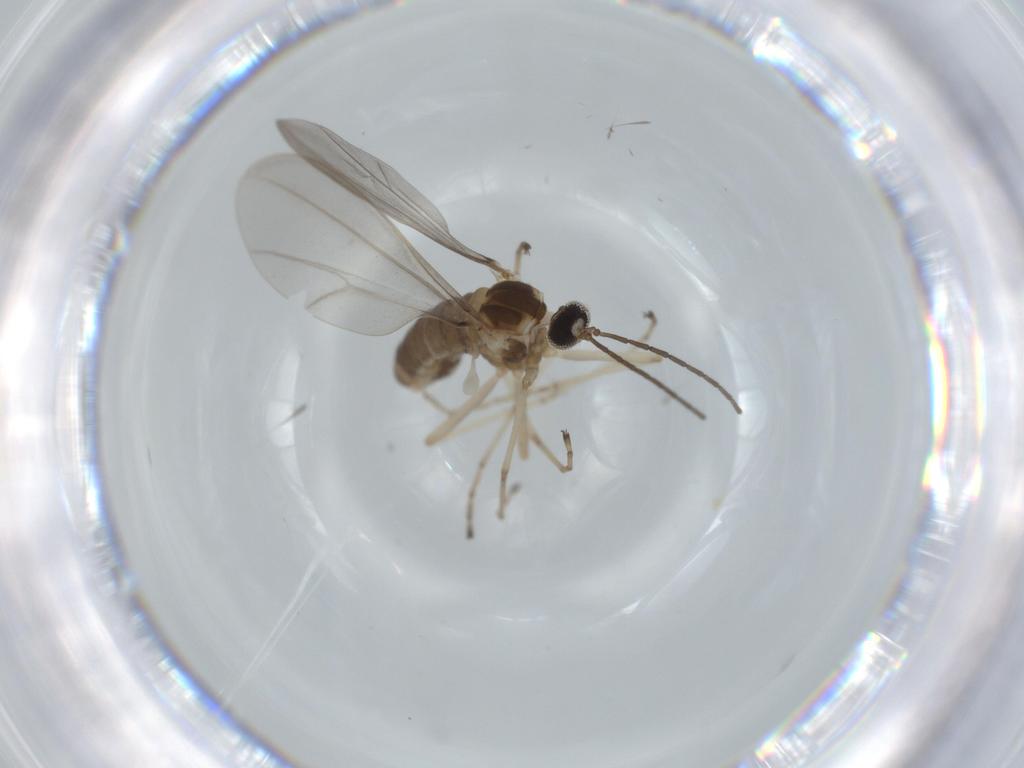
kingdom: Animalia
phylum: Arthropoda
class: Insecta
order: Diptera
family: Cecidomyiidae
